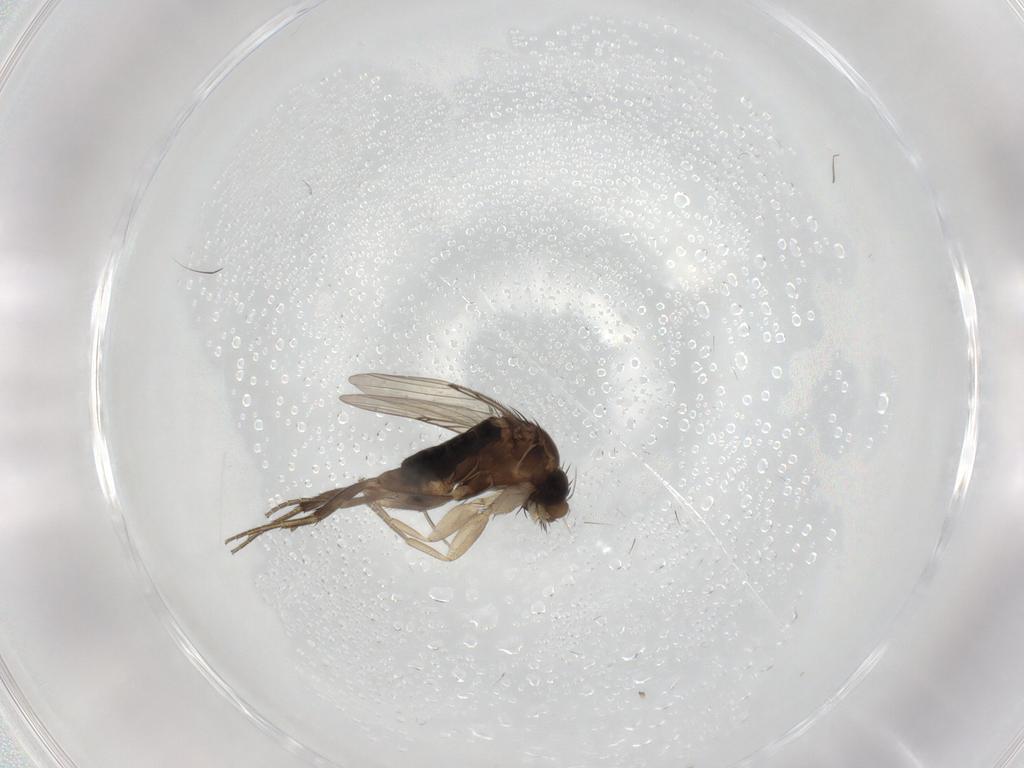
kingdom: Animalia
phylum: Arthropoda
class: Insecta
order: Diptera
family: Phoridae
